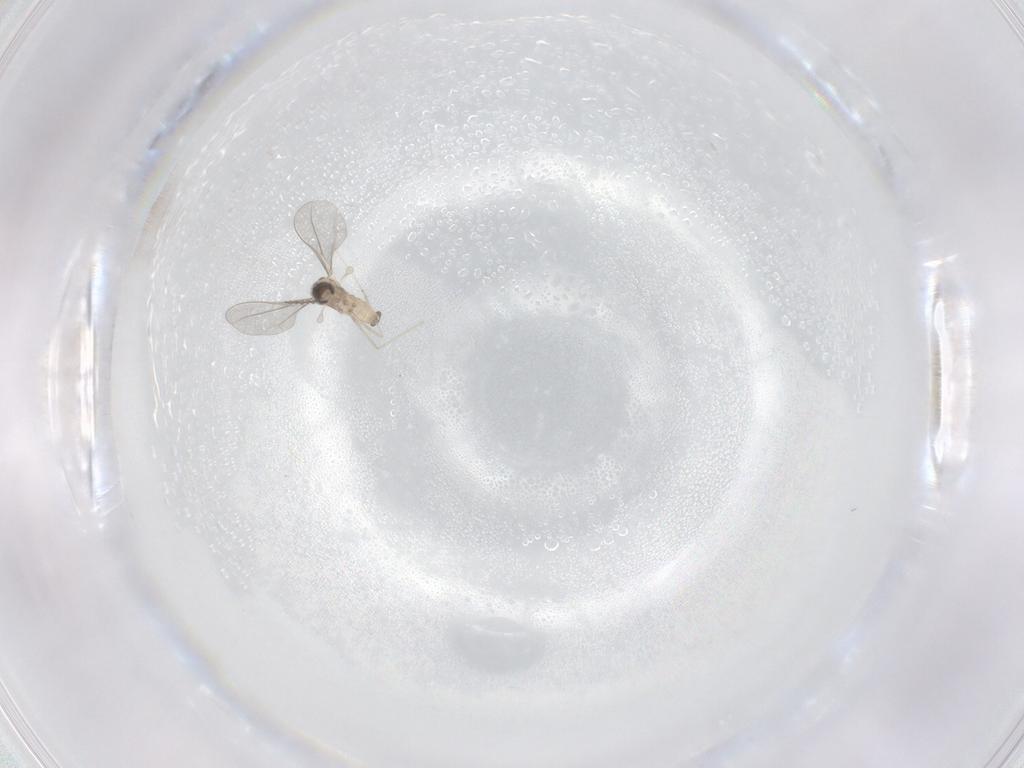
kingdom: Animalia
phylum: Arthropoda
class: Insecta
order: Diptera
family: Cecidomyiidae
